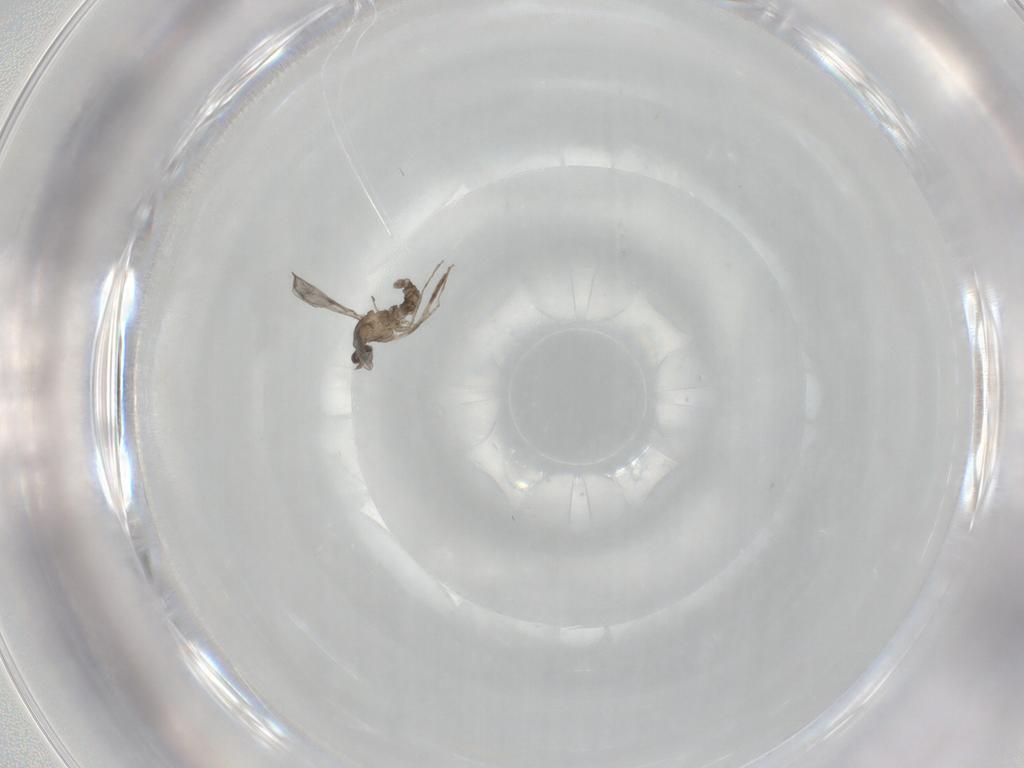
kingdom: Animalia
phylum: Arthropoda
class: Insecta
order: Diptera
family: Cecidomyiidae
